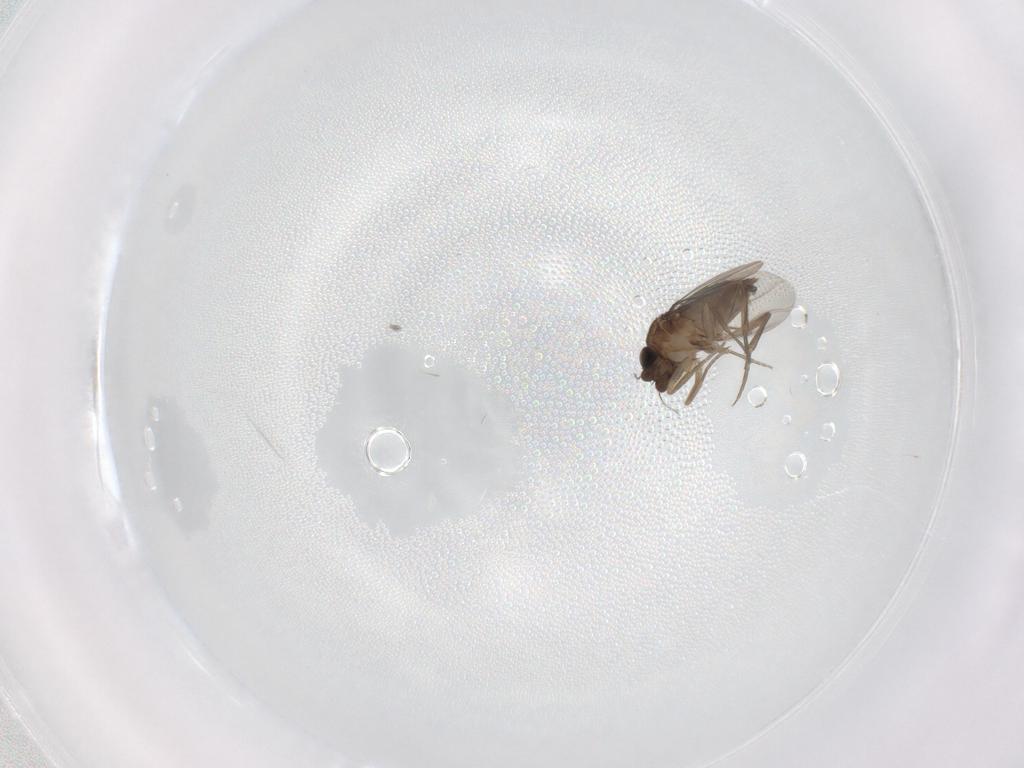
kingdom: Animalia
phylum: Arthropoda
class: Insecta
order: Diptera
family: Phoridae
